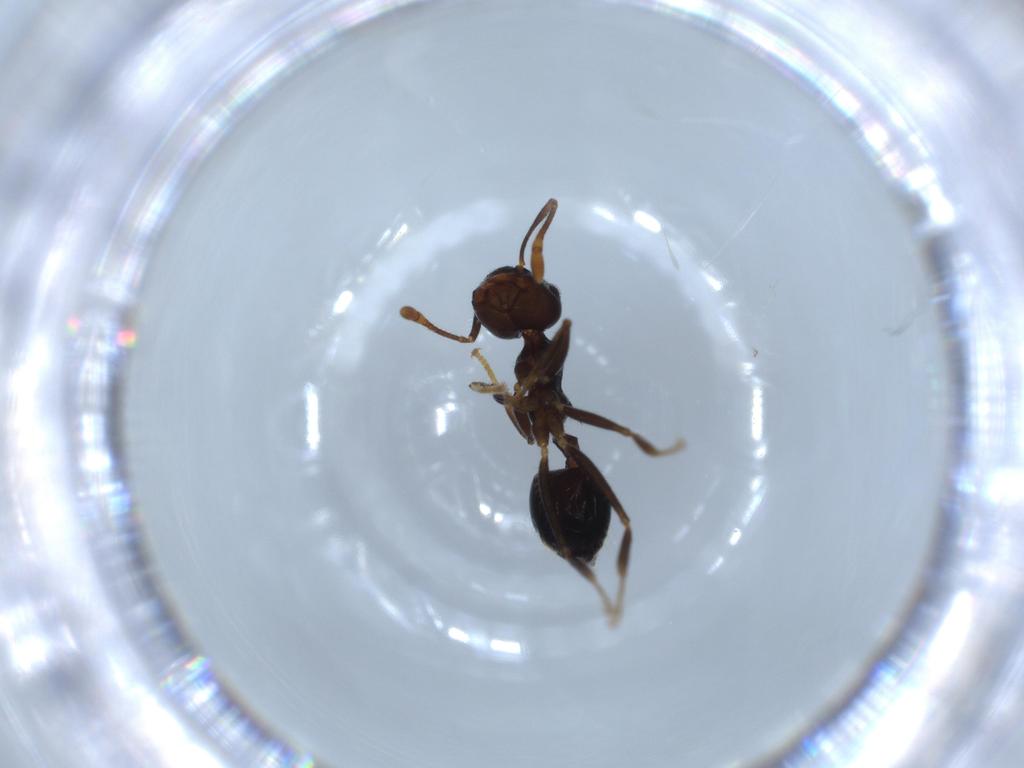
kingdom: Animalia
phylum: Arthropoda
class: Insecta
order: Hymenoptera
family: Formicidae
